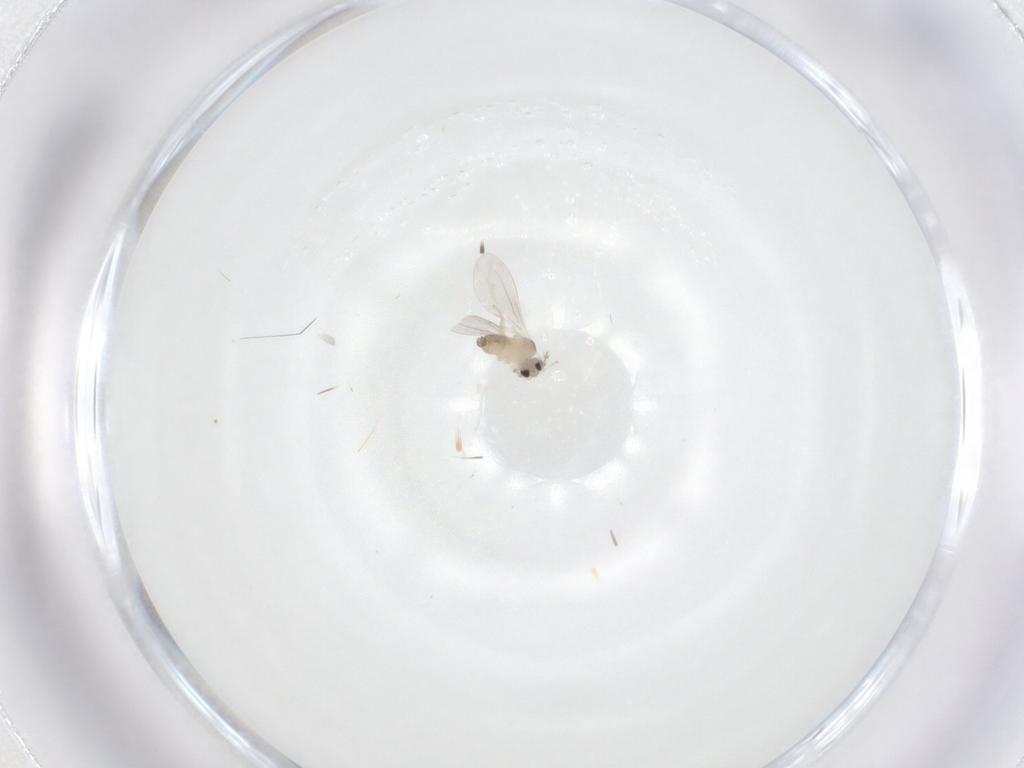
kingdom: Animalia
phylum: Arthropoda
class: Insecta
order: Diptera
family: Cecidomyiidae
